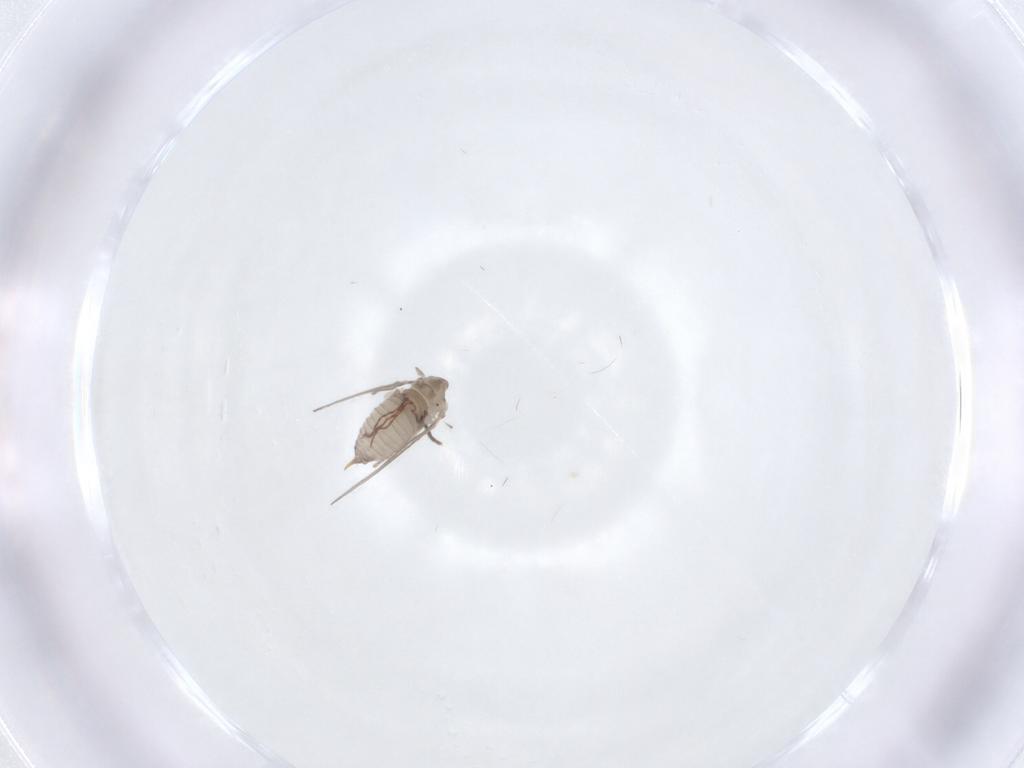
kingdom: Animalia
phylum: Arthropoda
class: Insecta
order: Diptera
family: Psychodidae
